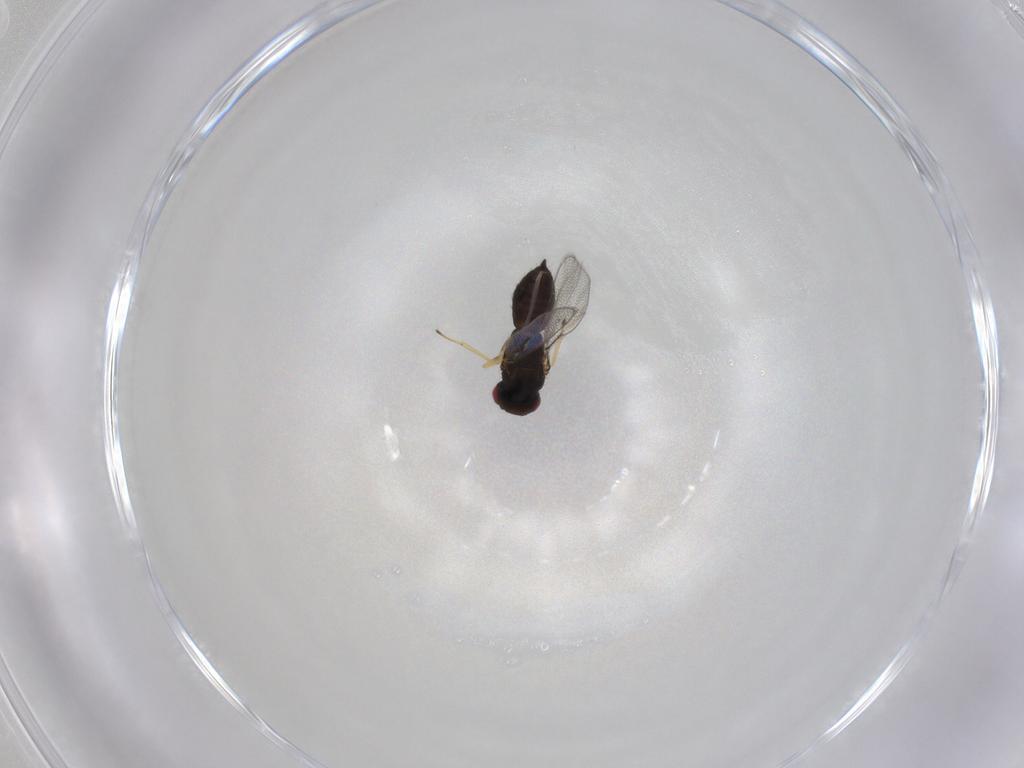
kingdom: Animalia
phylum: Arthropoda
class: Insecta
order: Hymenoptera
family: Eulophidae
